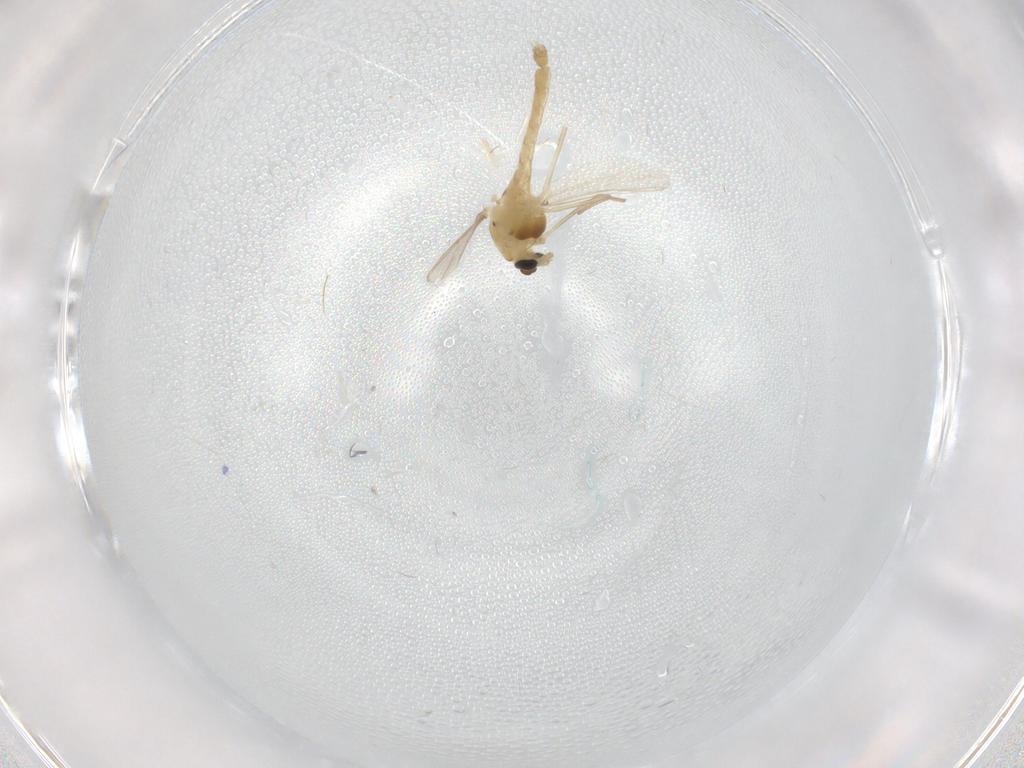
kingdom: Animalia
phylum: Arthropoda
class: Insecta
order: Diptera
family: Chironomidae
